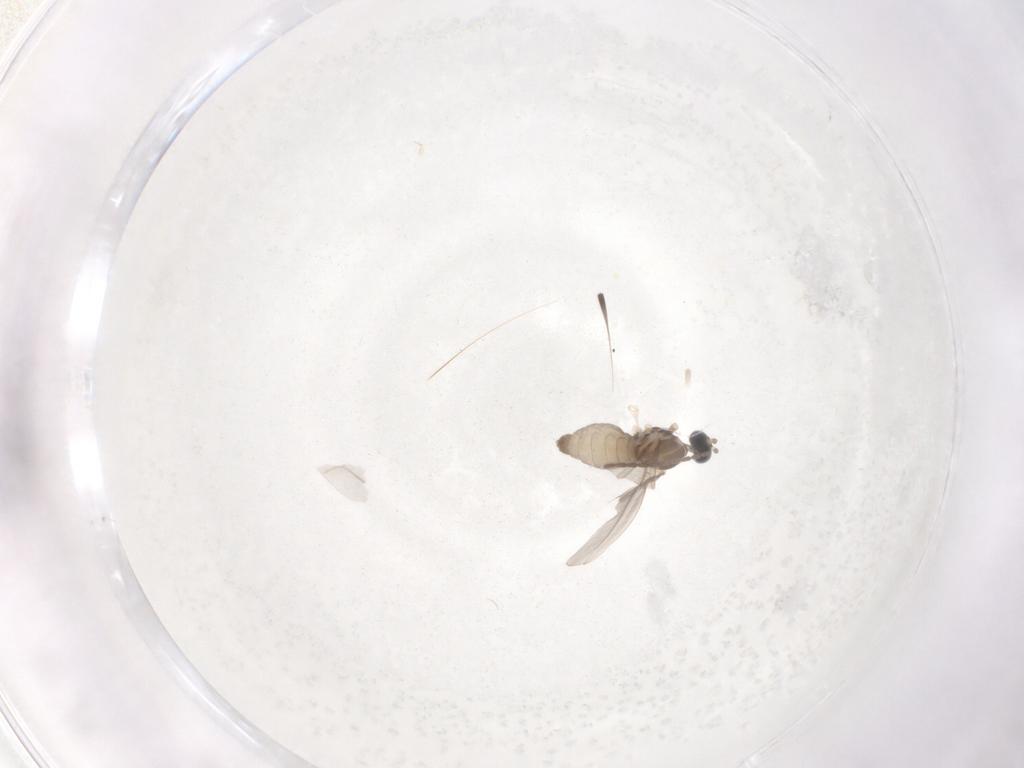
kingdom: Animalia
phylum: Arthropoda
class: Insecta
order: Diptera
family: Cecidomyiidae
